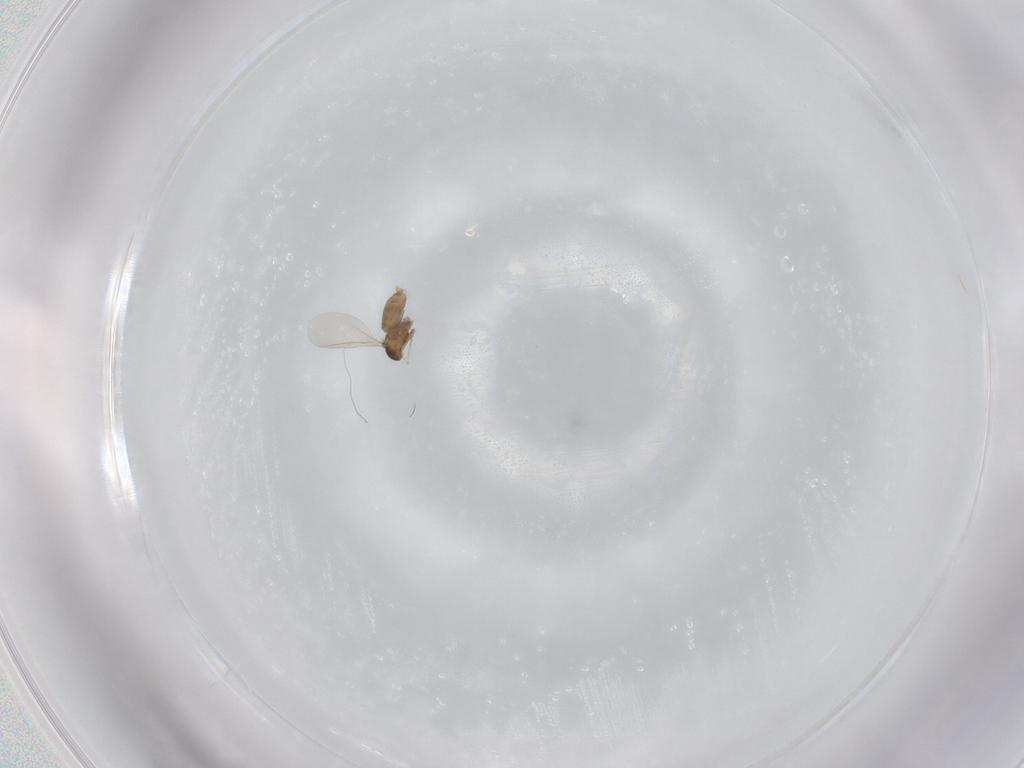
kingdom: Animalia
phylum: Arthropoda
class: Insecta
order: Diptera
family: Cecidomyiidae
